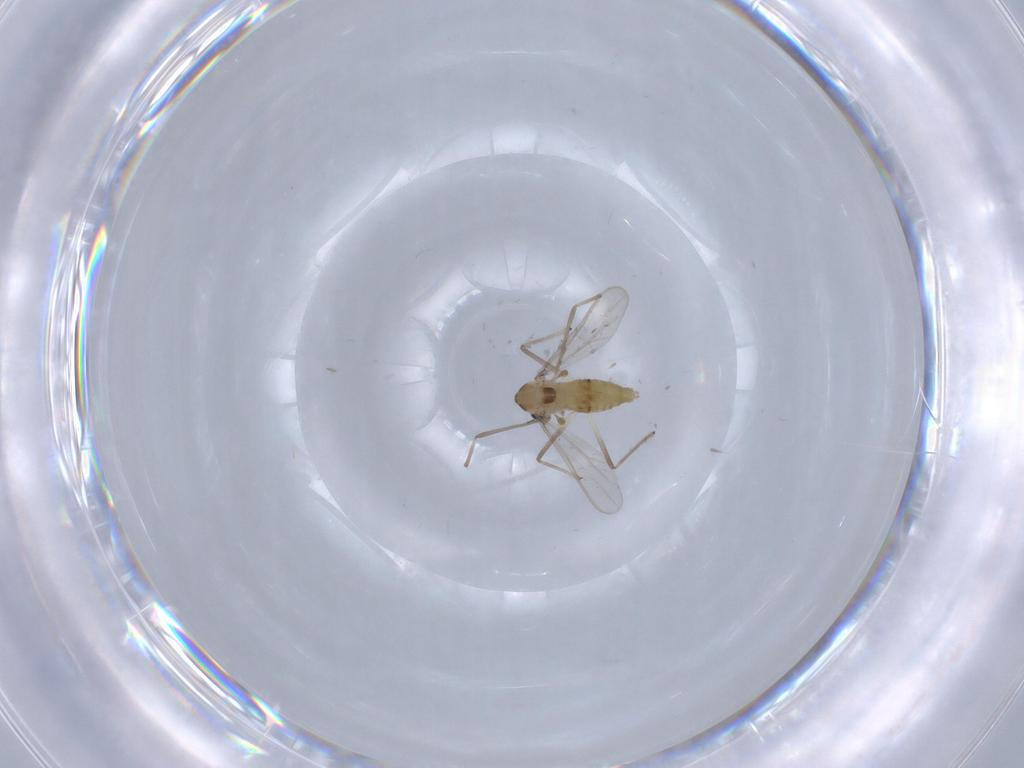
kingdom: Animalia
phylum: Arthropoda
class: Insecta
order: Diptera
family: Chironomidae
